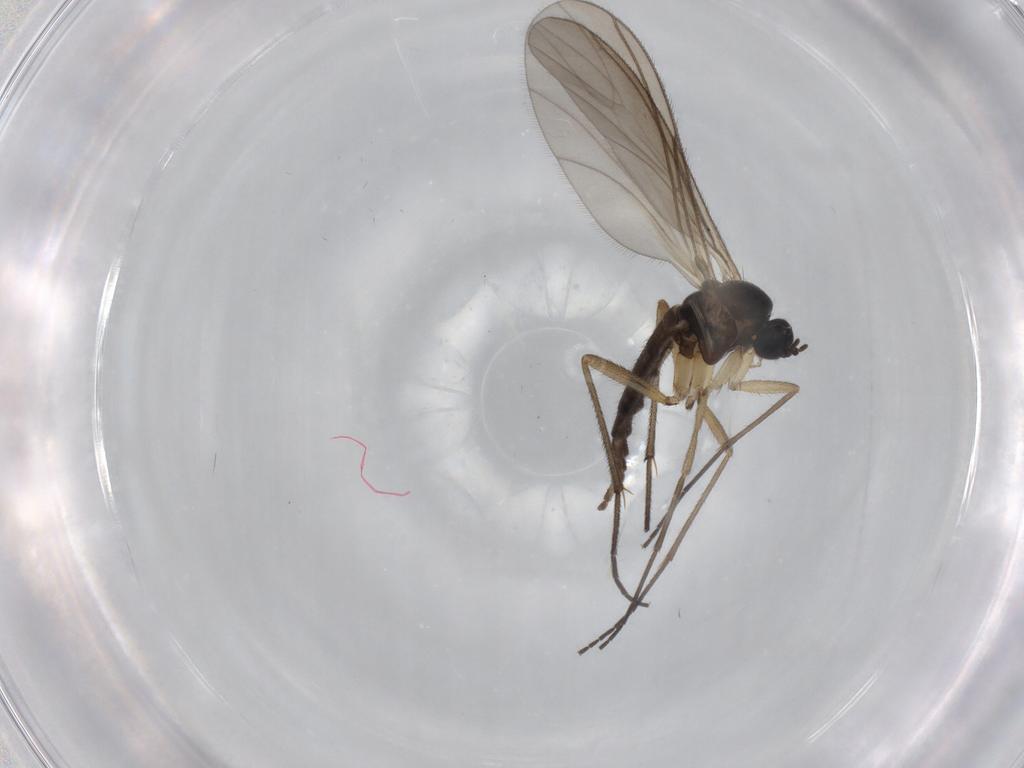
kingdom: Animalia
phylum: Arthropoda
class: Insecta
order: Diptera
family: Sciaridae
